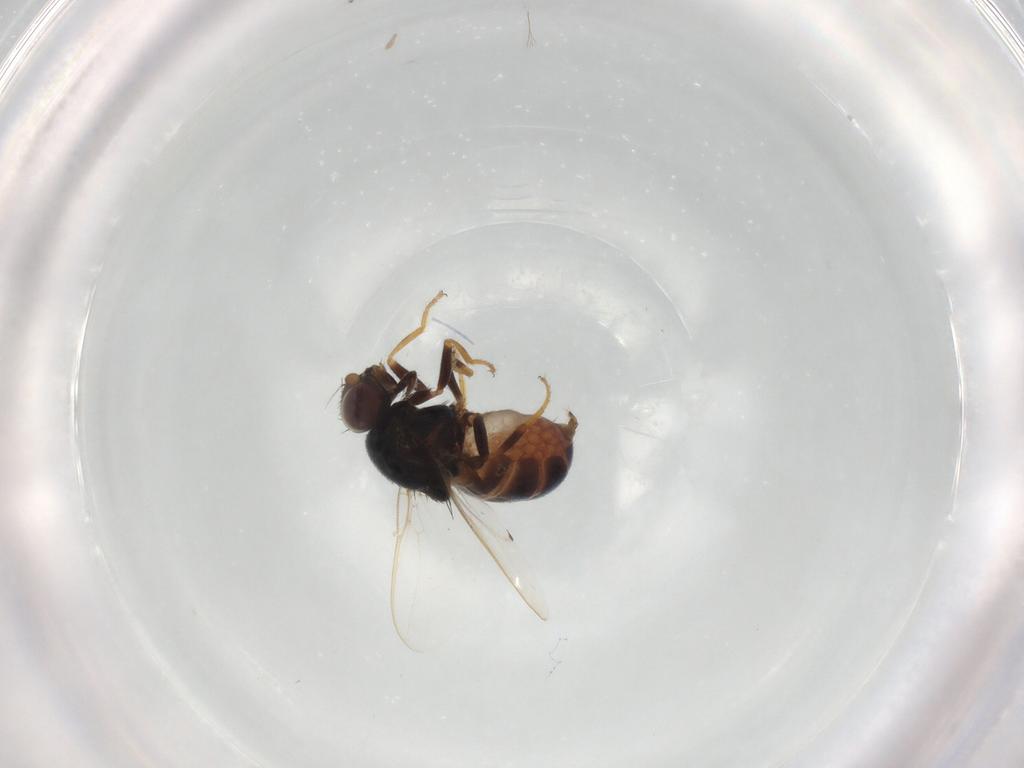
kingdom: Animalia
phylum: Arthropoda
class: Insecta
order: Diptera
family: Chloropidae
